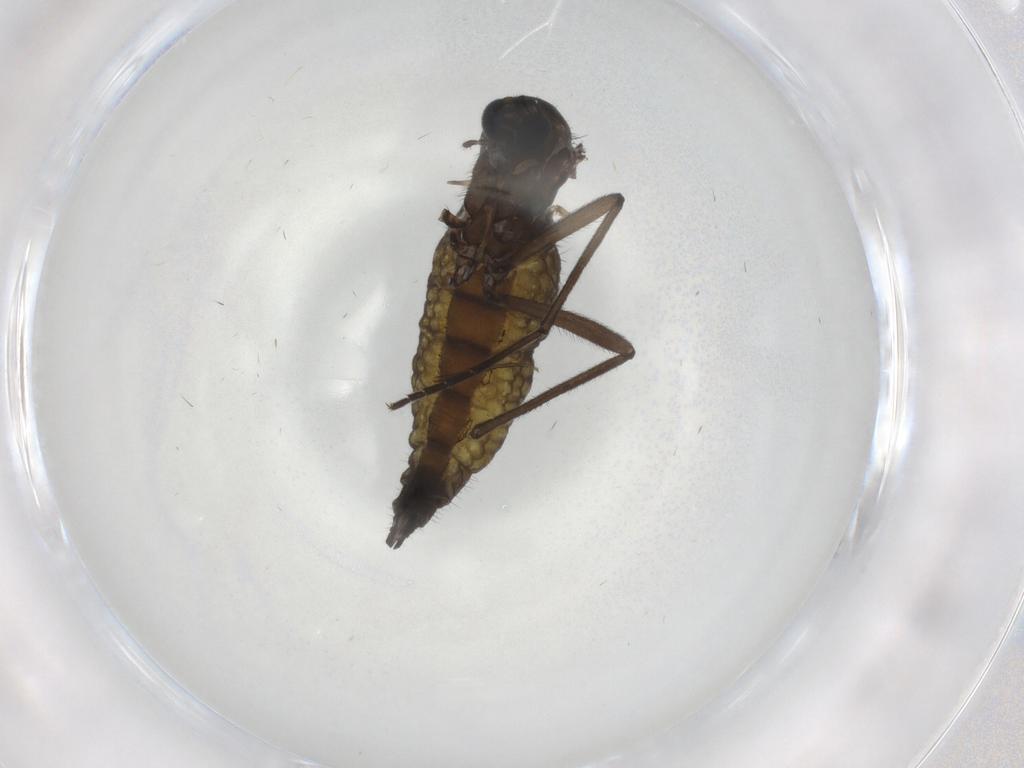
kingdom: Animalia
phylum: Arthropoda
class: Insecta
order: Diptera
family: Sciaridae
